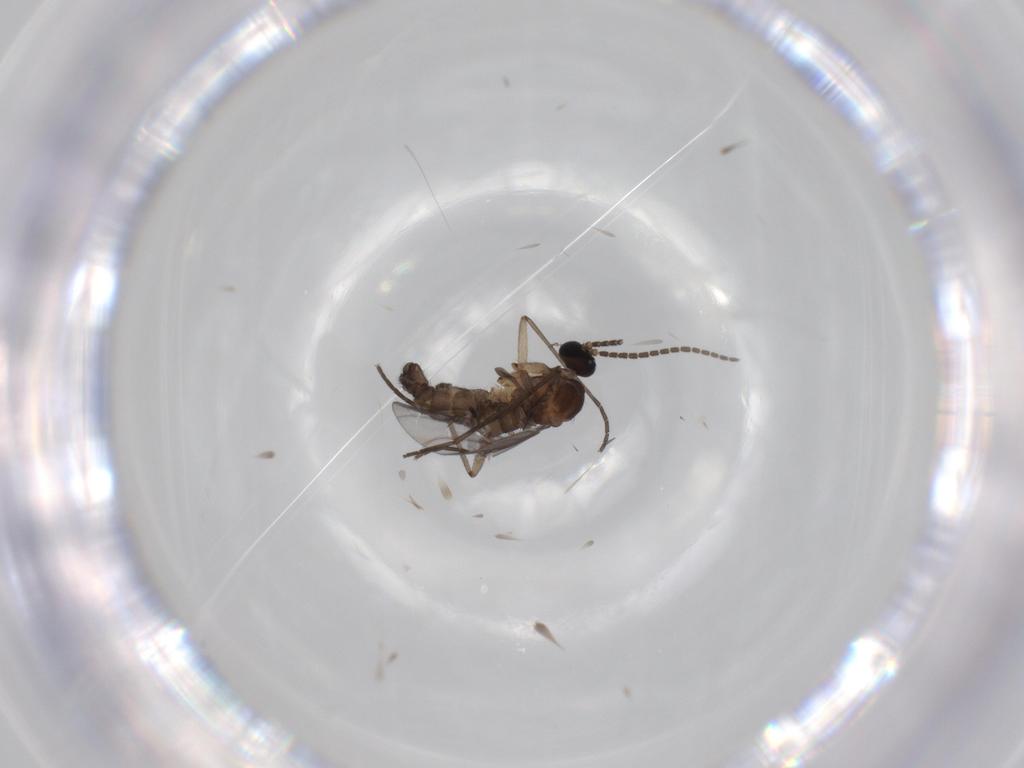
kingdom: Animalia
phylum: Arthropoda
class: Insecta
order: Diptera
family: Sciaridae
